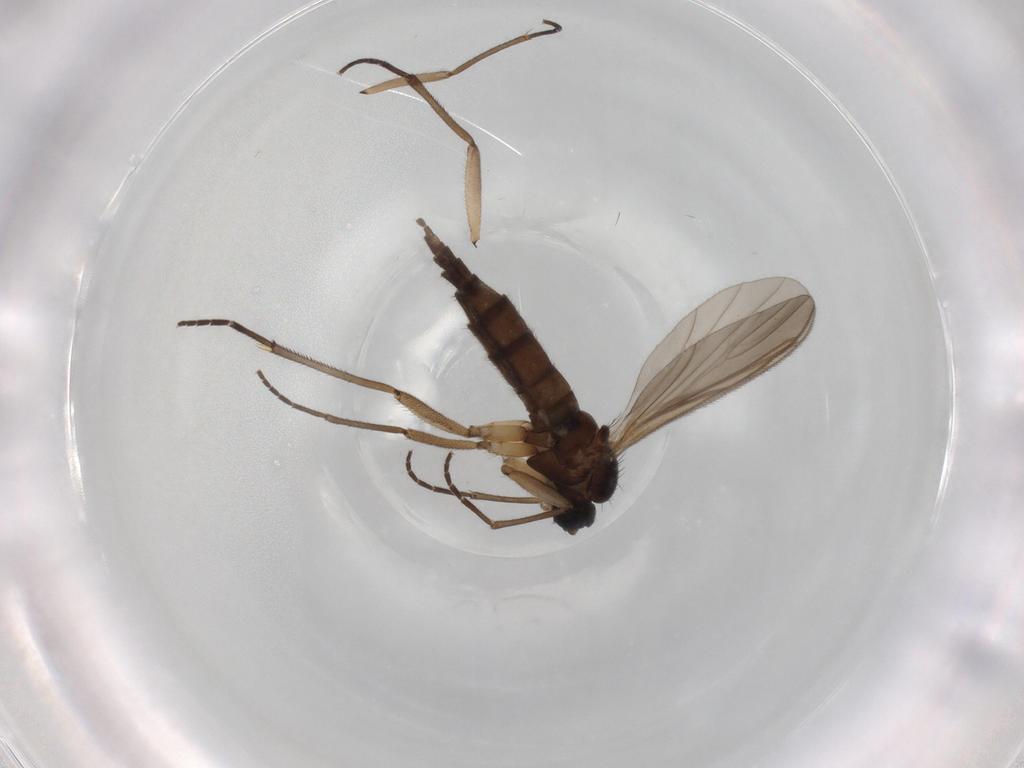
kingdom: Animalia
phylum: Arthropoda
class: Insecta
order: Diptera
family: Sciaridae
